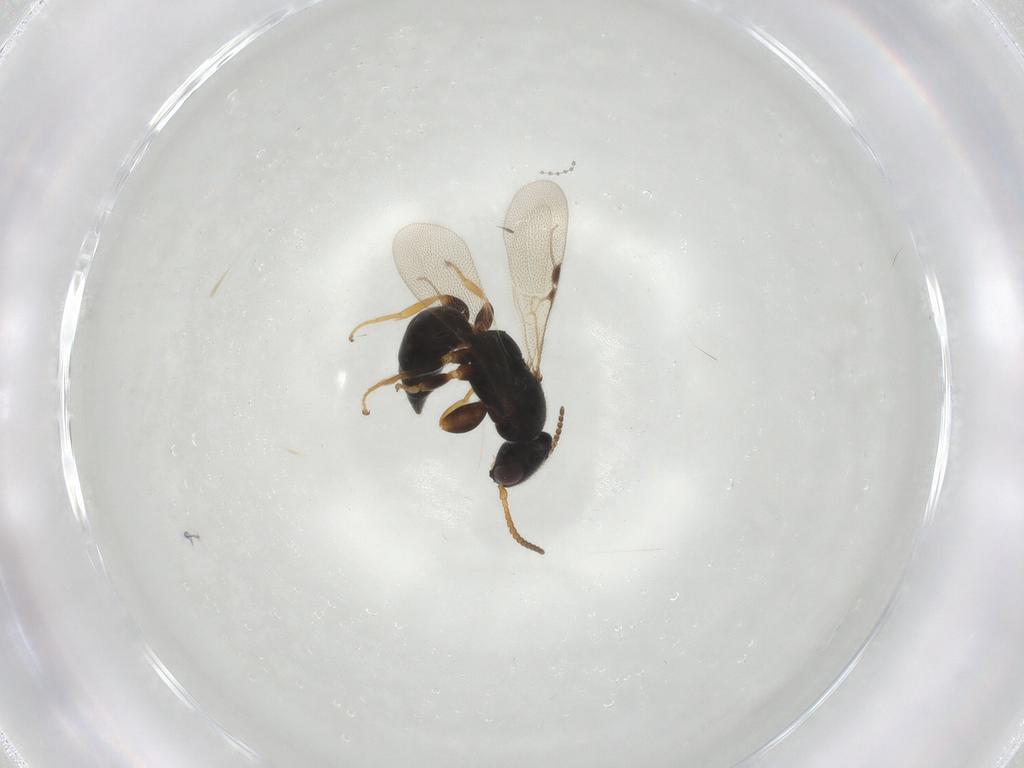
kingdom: Animalia
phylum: Arthropoda
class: Insecta
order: Hymenoptera
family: Bethylidae
